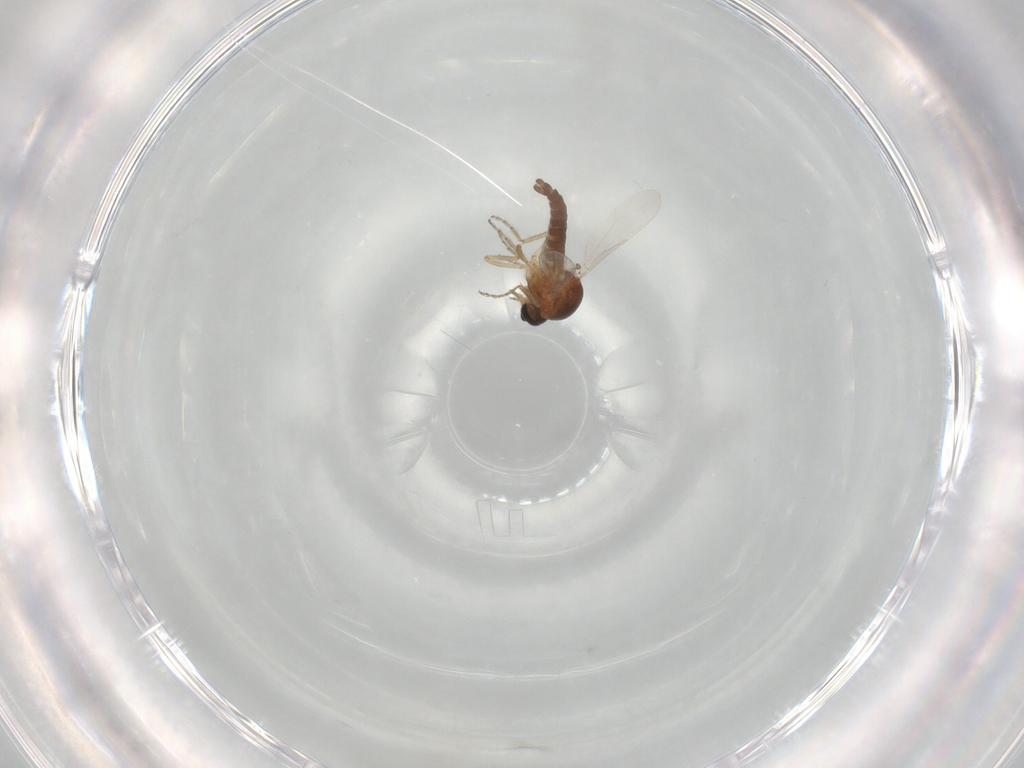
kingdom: Animalia
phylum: Arthropoda
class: Insecta
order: Diptera
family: Ceratopogonidae
